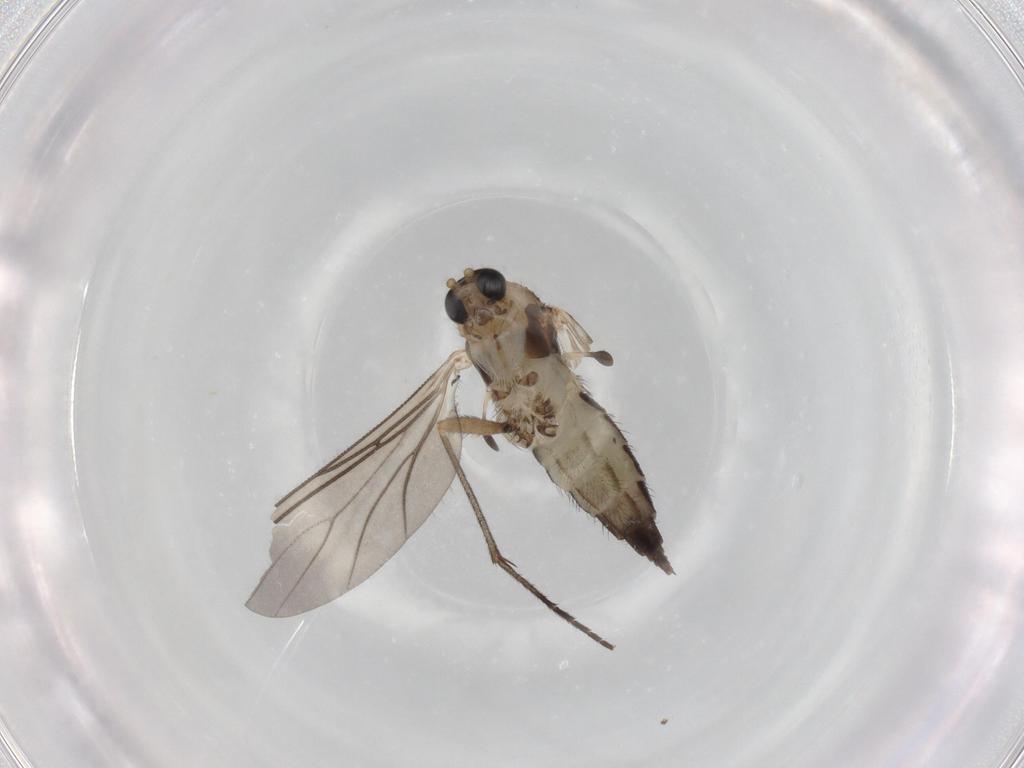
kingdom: Animalia
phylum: Arthropoda
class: Insecta
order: Diptera
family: Sciaridae
